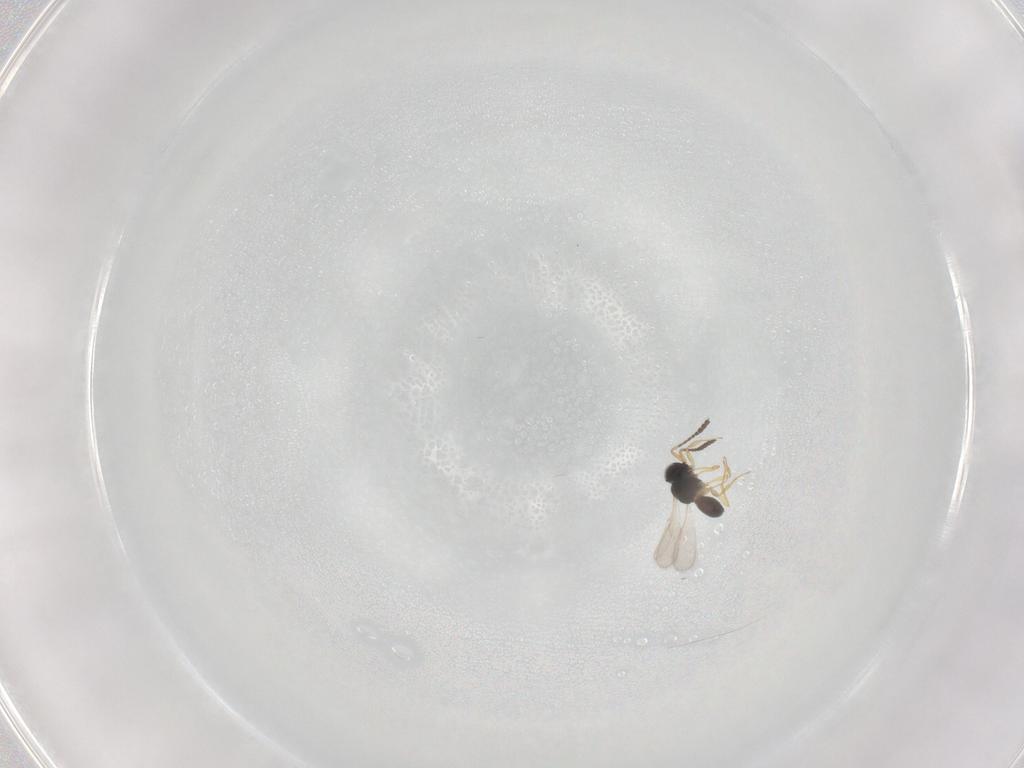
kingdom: Animalia
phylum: Arthropoda
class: Insecta
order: Hymenoptera
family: Scelionidae
